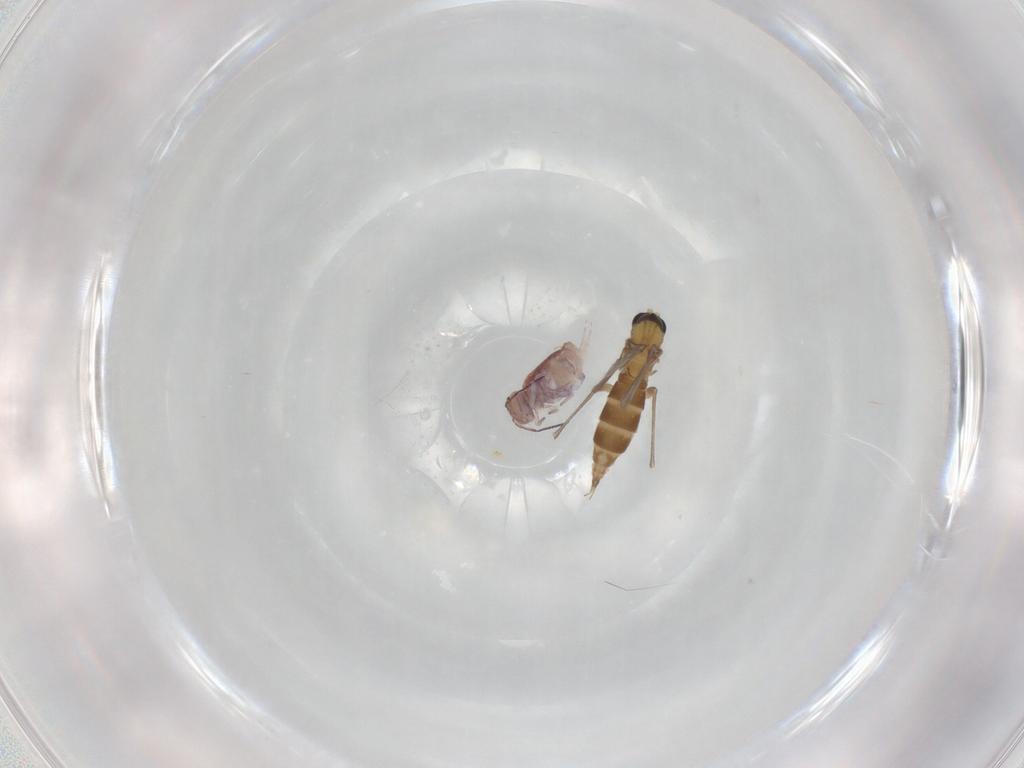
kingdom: Animalia
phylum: Arthropoda
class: Insecta
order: Diptera
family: Sciaridae
